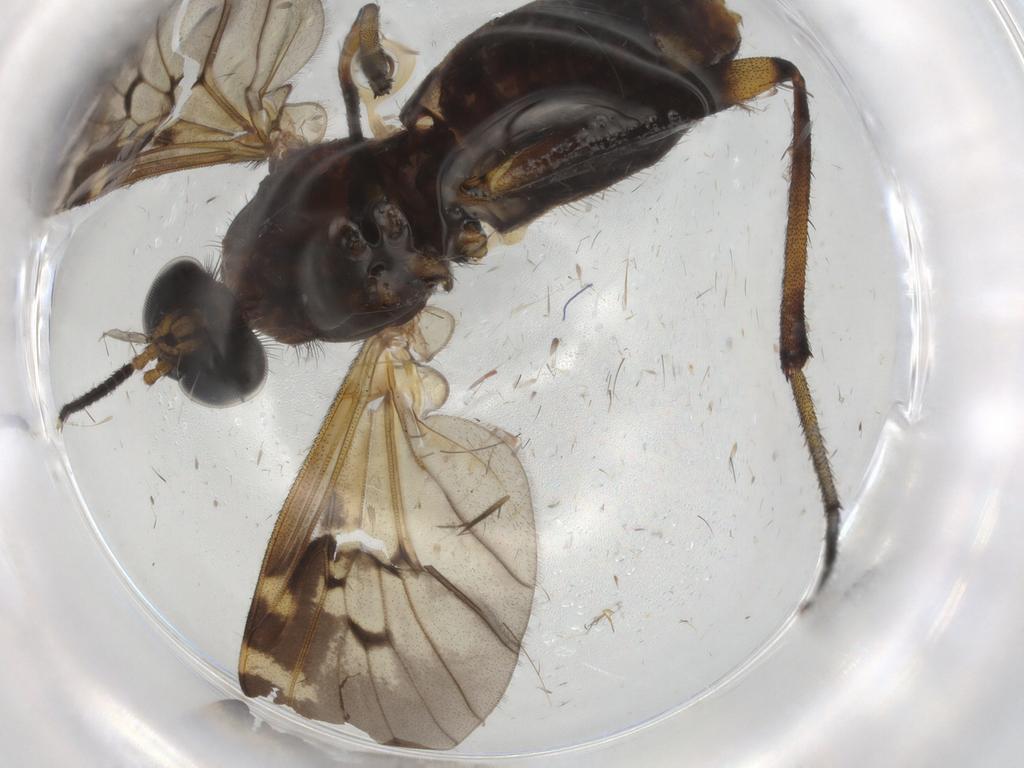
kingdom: Animalia
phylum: Arthropoda
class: Insecta
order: Diptera
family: Phoridae
